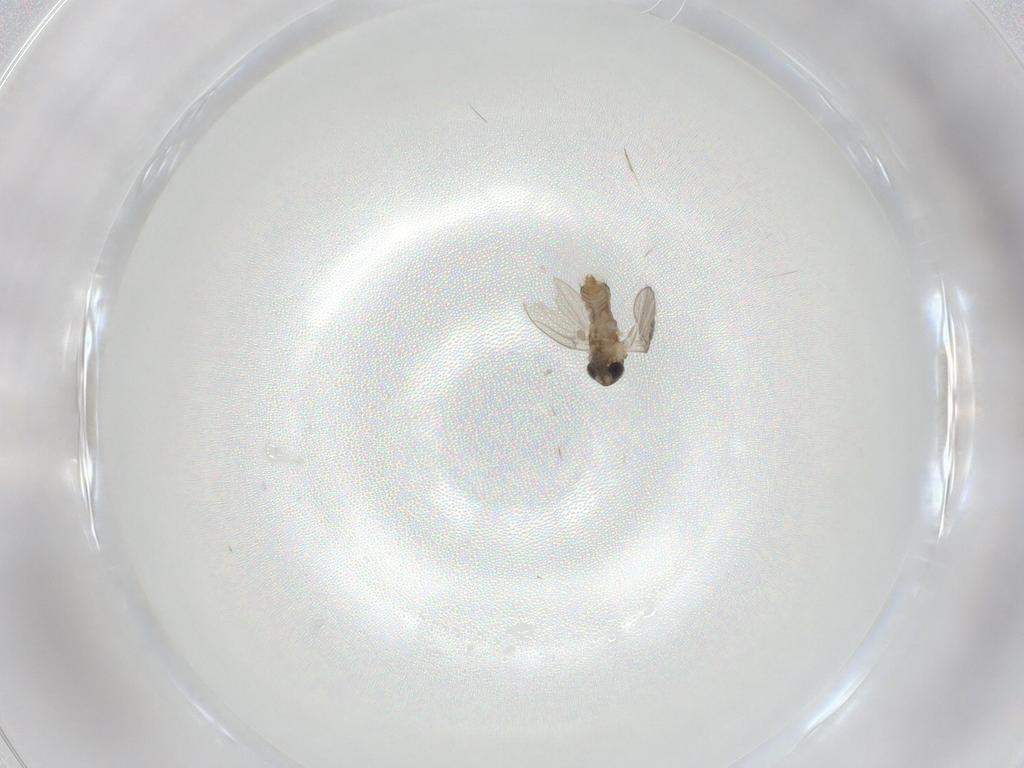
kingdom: Animalia
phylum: Arthropoda
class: Insecta
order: Diptera
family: Psychodidae
